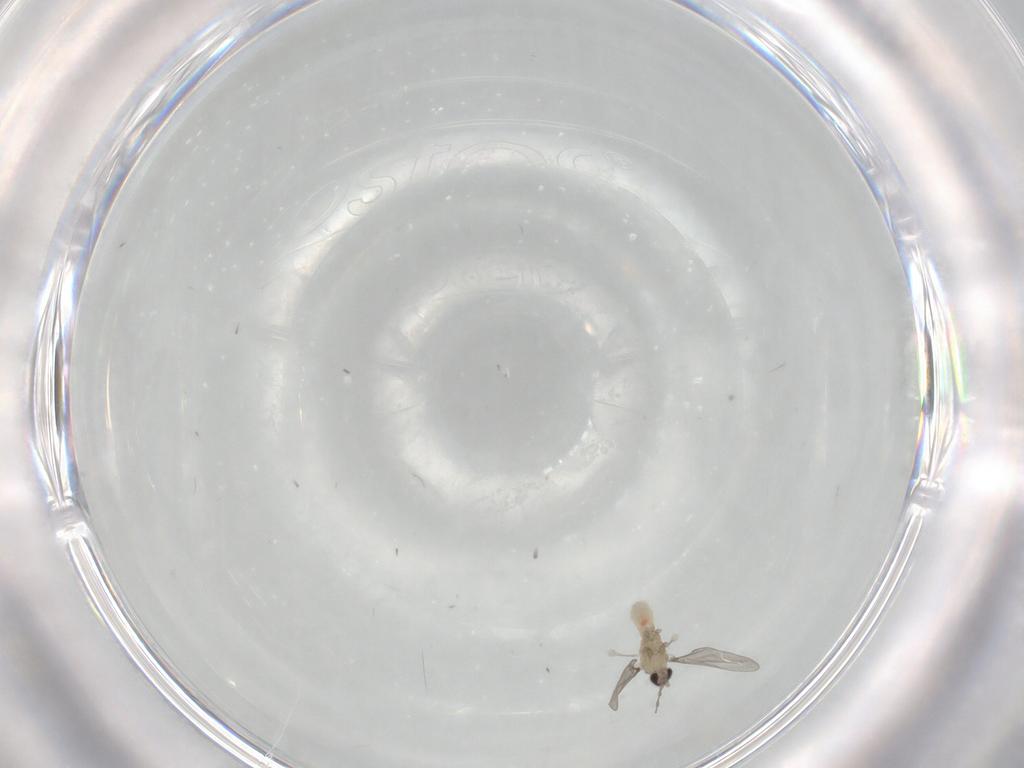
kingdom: Animalia
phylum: Arthropoda
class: Insecta
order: Diptera
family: Cecidomyiidae
